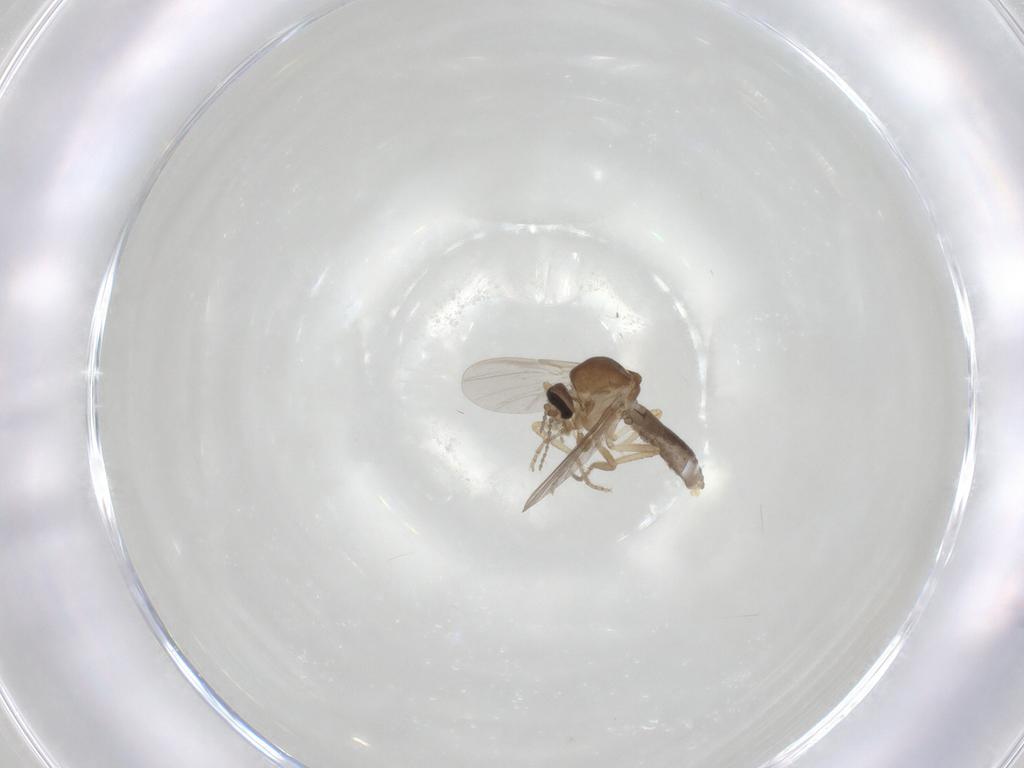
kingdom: Animalia
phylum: Arthropoda
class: Insecta
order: Diptera
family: Ceratopogonidae
